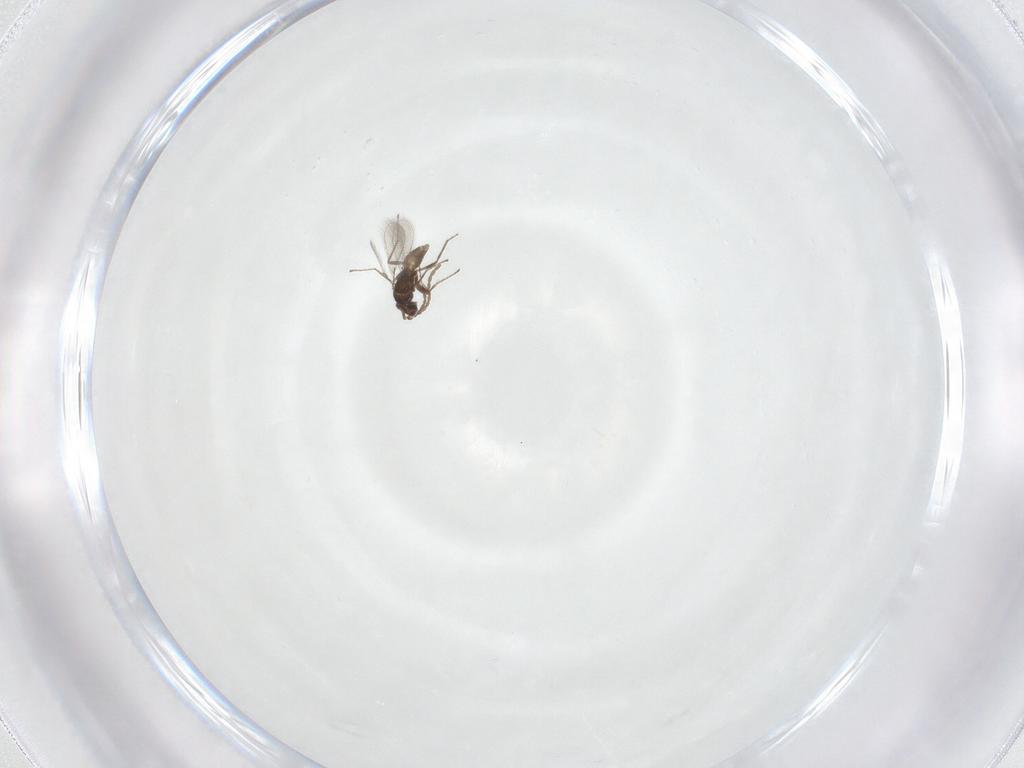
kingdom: Animalia
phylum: Arthropoda
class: Insecta
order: Hymenoptera
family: Mymaridae
